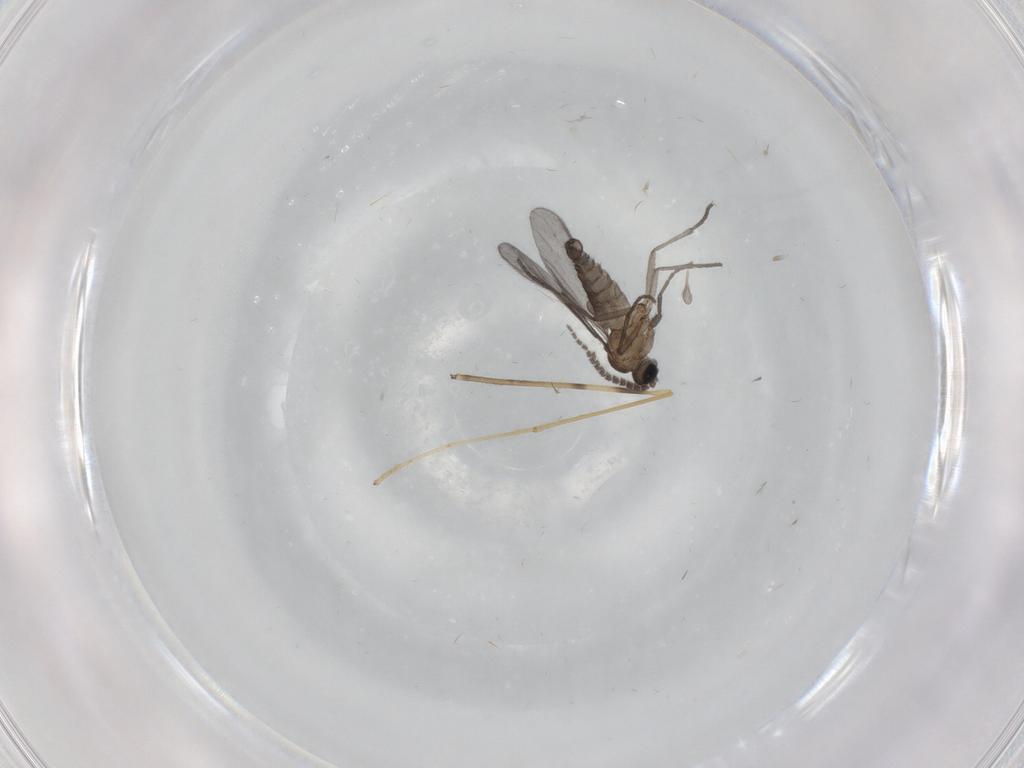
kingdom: Animalia
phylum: Arthropoda
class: Insecta
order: Diptera
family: Sciaridae
